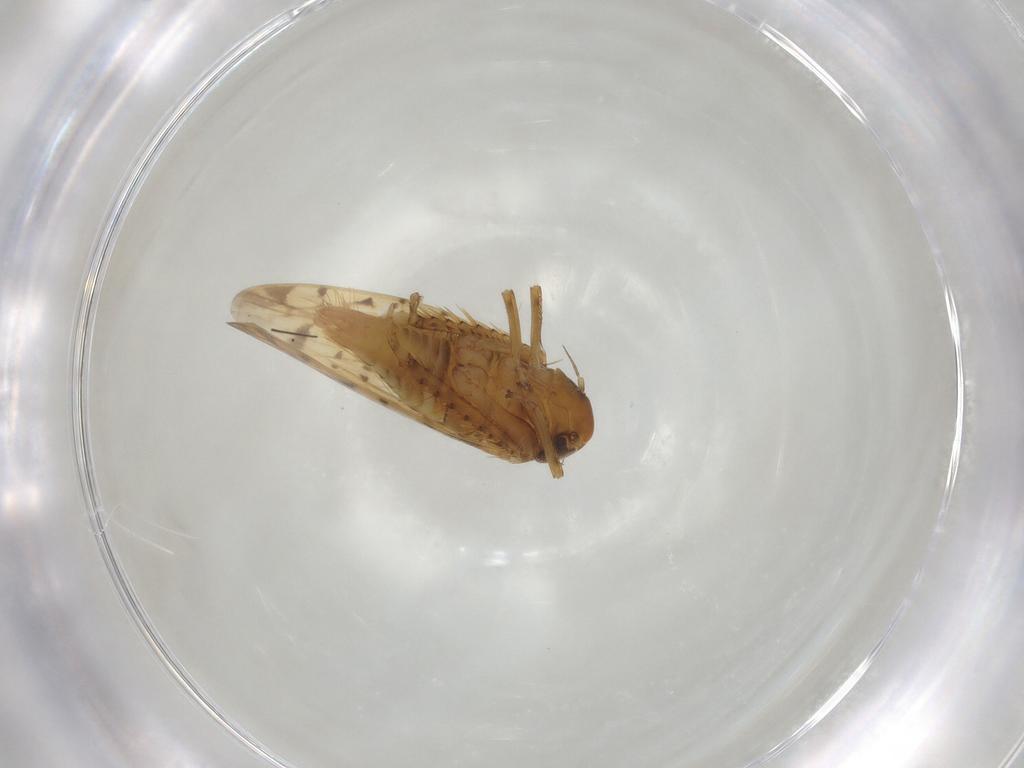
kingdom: Animalia
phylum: Arthropoda
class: Insecta
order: Hemiptera
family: Cicadellidae
